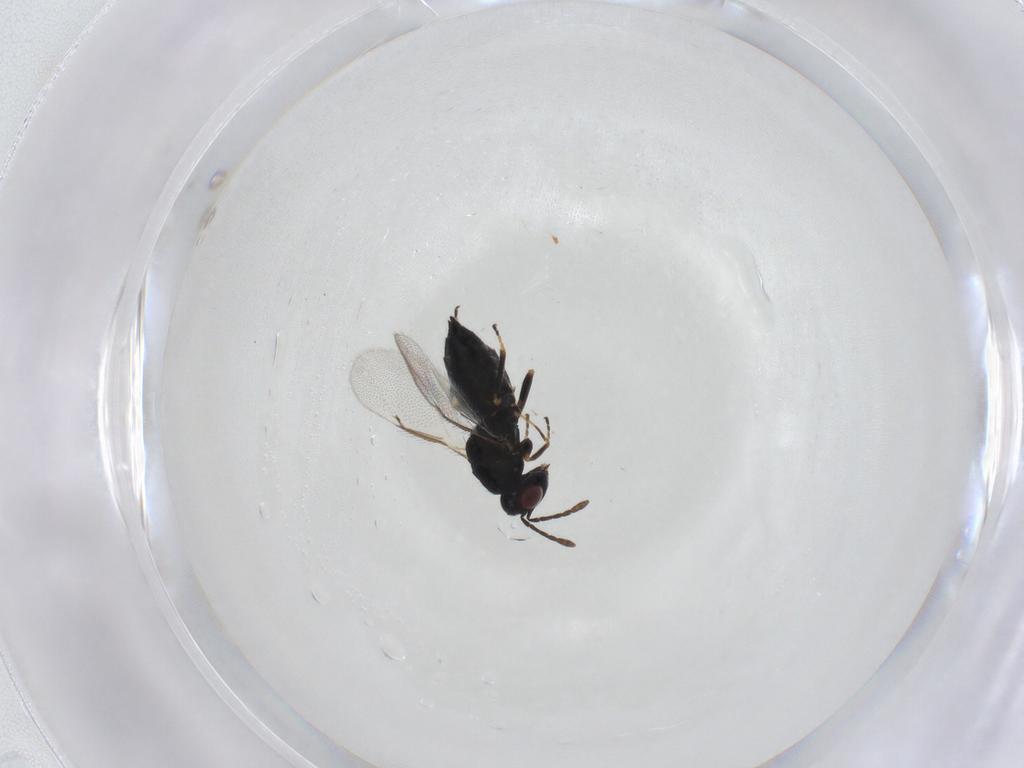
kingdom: Animalia
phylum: Arthropoda
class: Insecta
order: Hymenoptera
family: Eulophidae
